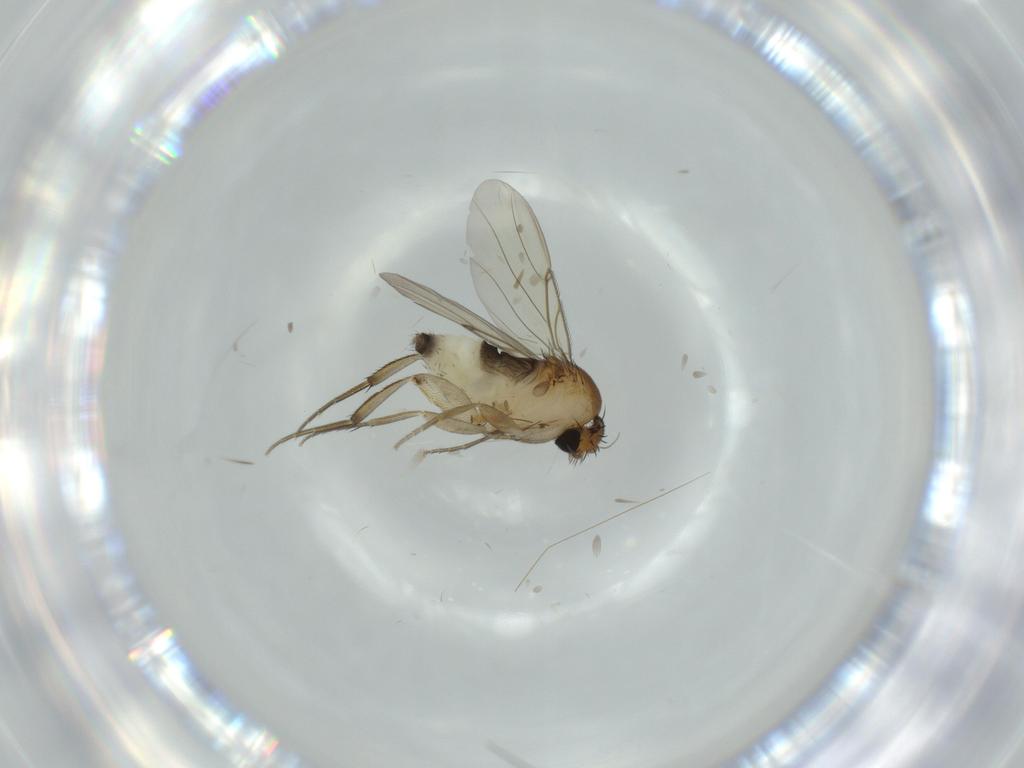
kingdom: Animalia
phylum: Arthropoda
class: Insecta
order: Diptera
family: Phoridae
